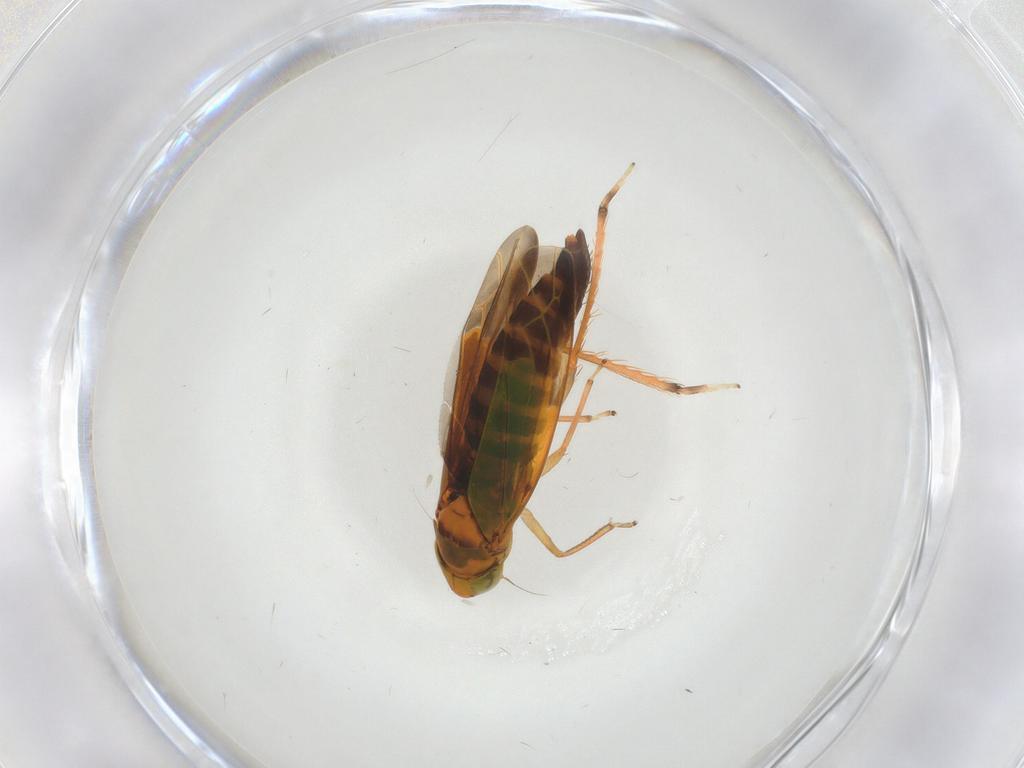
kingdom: Animalia
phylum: Arthropoda
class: Insecta
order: Hemiptera
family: Cicadellidae
